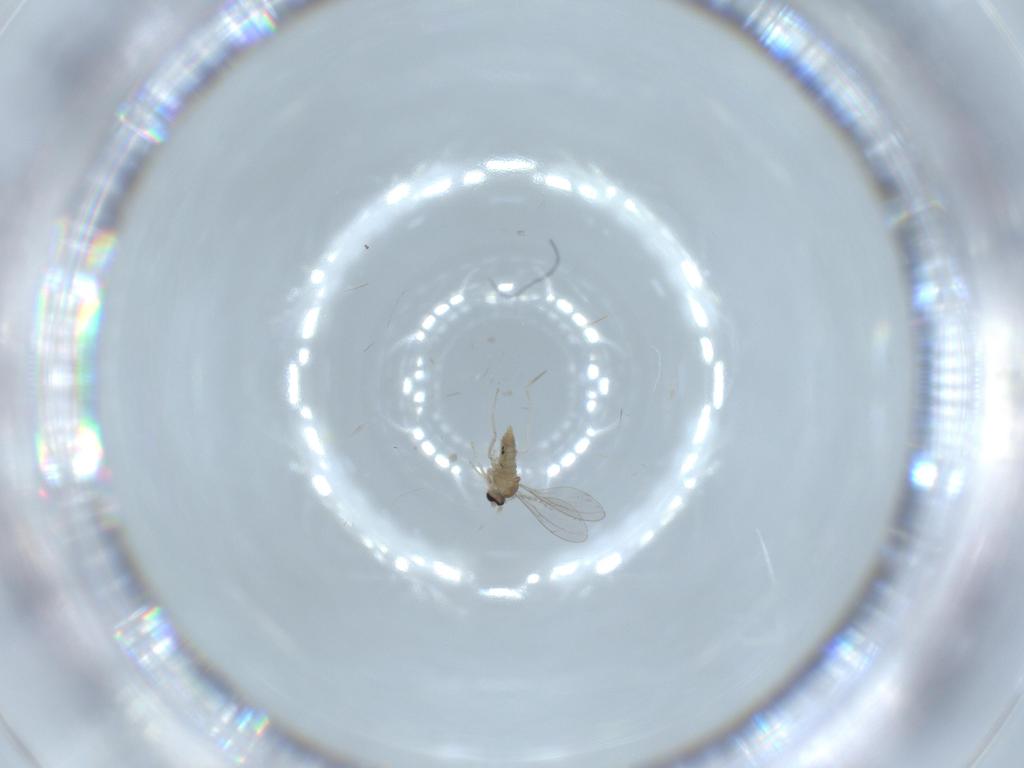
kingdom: Animalia
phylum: Arthropoda
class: Insecta
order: Diptera
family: Cecidomyiidae
